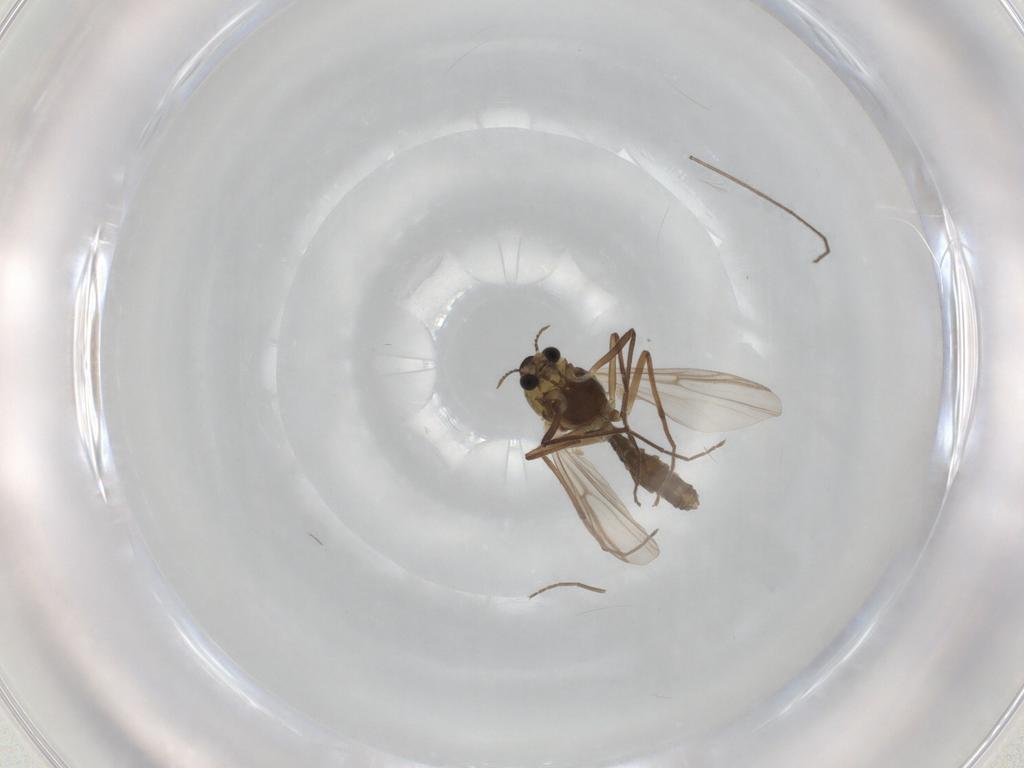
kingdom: Animalia
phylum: Arthropoda
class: Insecta
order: Diptera
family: Chironomidae
